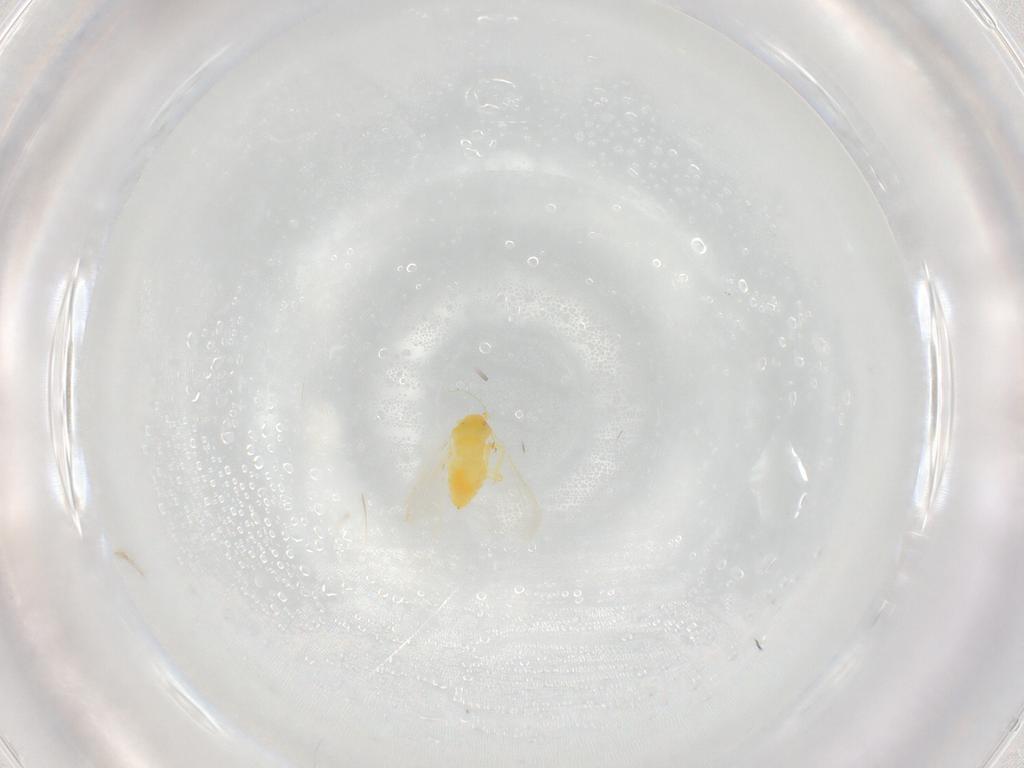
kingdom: Animalia
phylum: Arthropoda
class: Insecta
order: Hemiptera
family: Aleyrodidae
